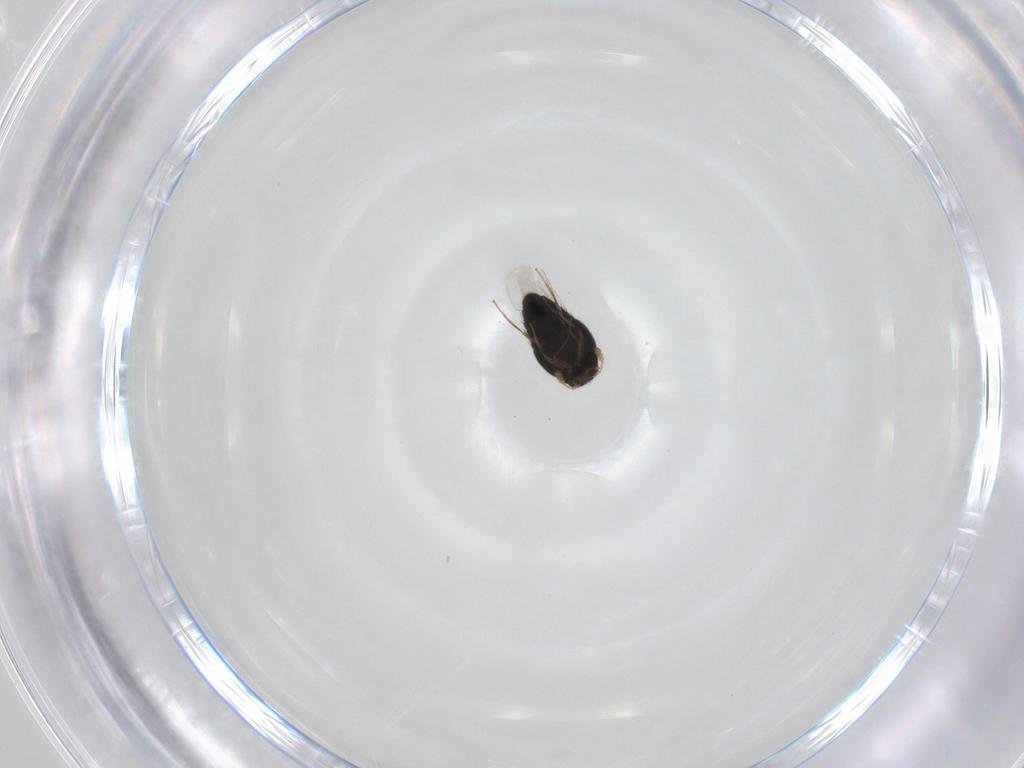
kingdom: Animalia
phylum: Arthropoda
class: Insecta
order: Coleoptera
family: Staphylinidae
